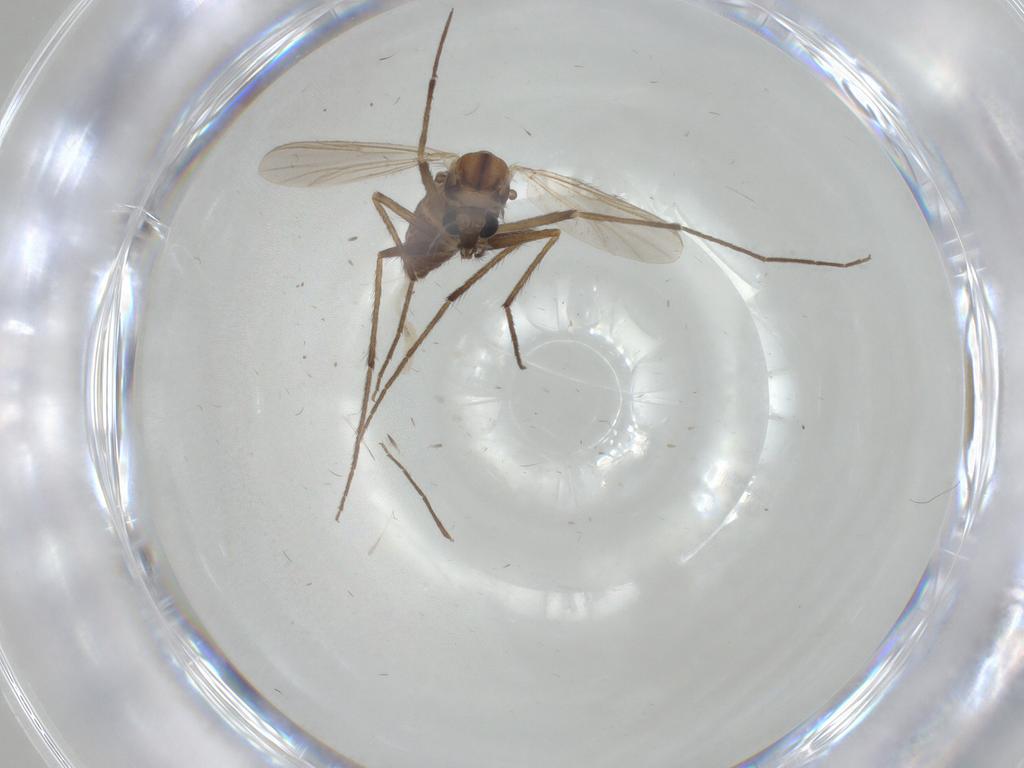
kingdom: Animalia
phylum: Arthropoda
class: Insecta
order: Diptera
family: Chironomidae
